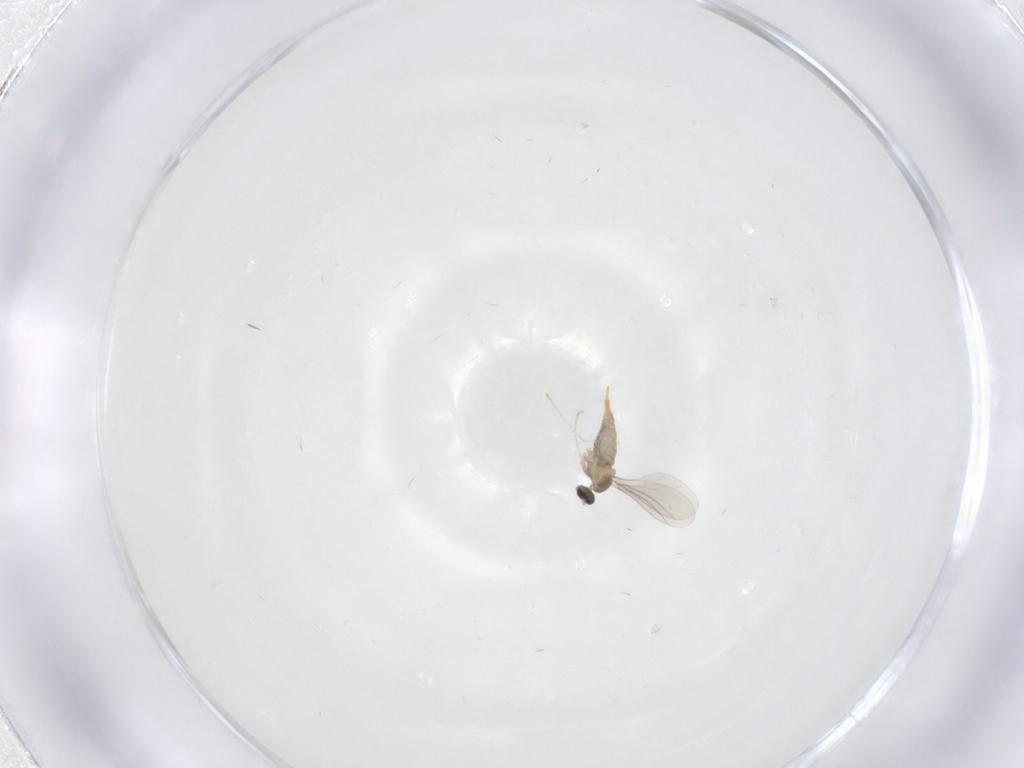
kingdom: Animalia
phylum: Arthropoda
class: Insecta
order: Diptera
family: Cecidomyiidae
